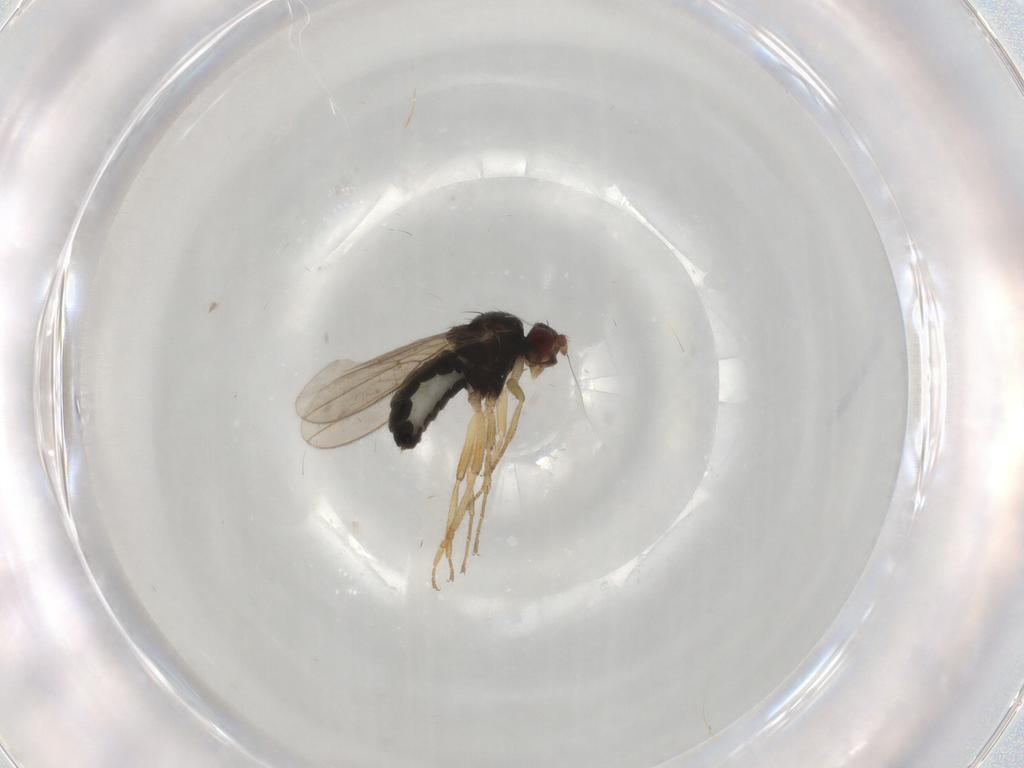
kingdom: Animalia
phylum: Arthropoda
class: Insecta
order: Diptera
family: Sphaeroceridae
